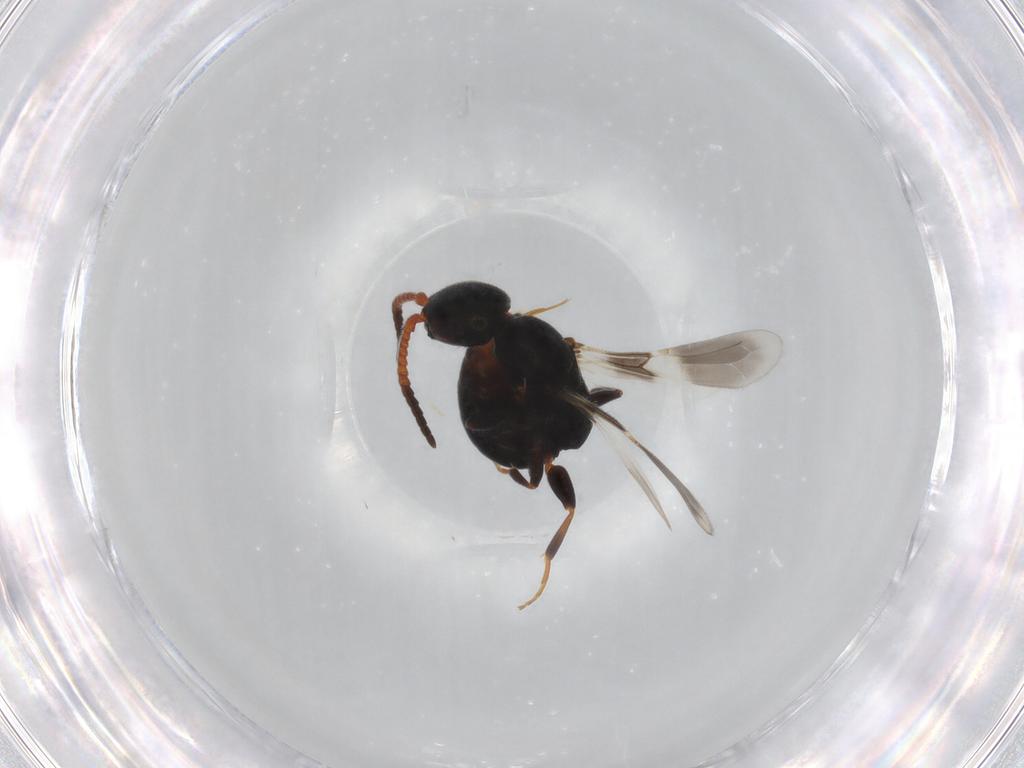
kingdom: Animalia
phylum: Arthropoda
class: Insecta
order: Hymenoptera
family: Bethylidae
